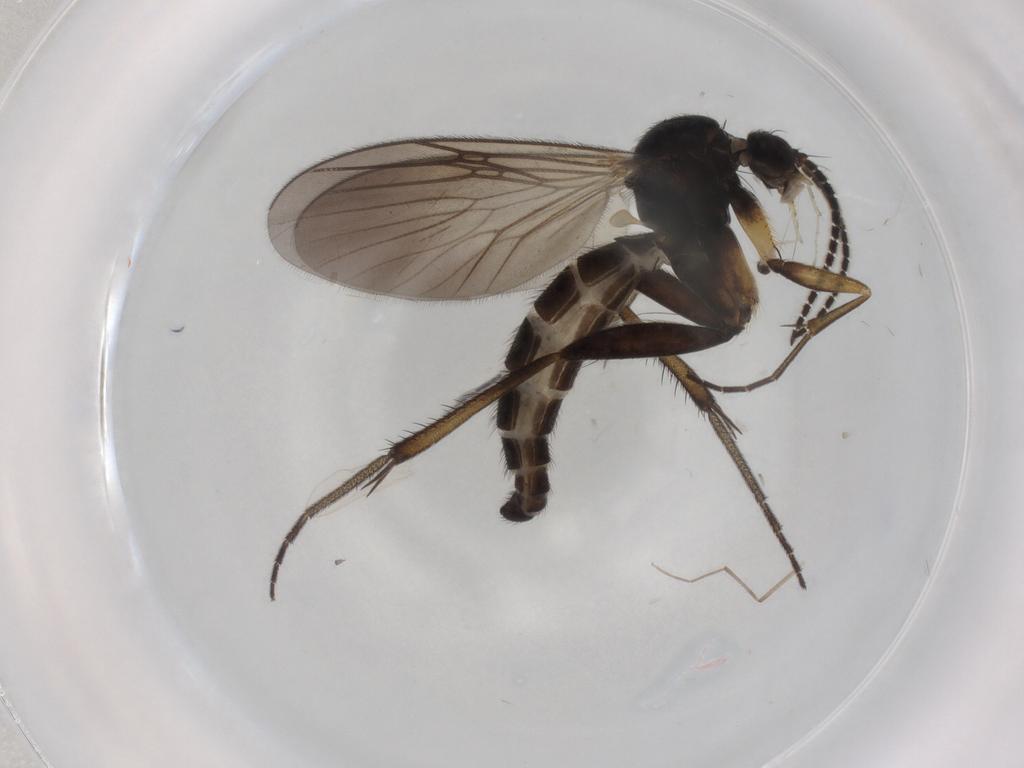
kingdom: Animalia
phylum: Arthropoda
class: Insecta
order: Diptera
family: Mycetophilidae
